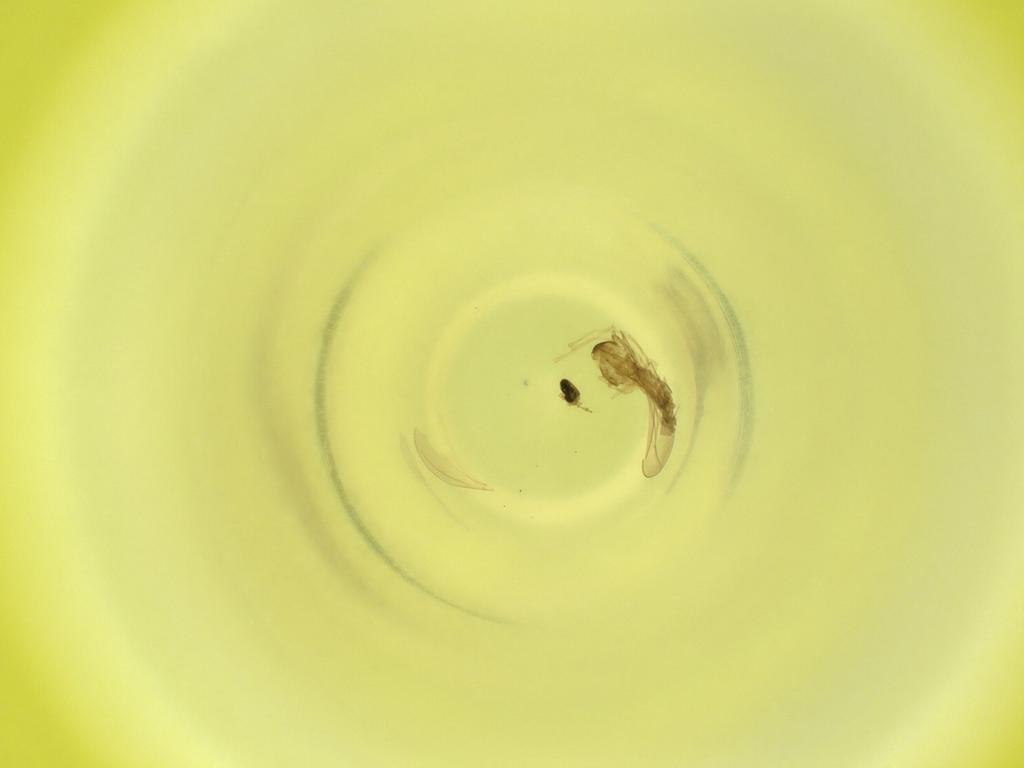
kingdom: Animalia
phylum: Arthropoda
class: Insecta
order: Diptera
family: Cecidomyiidae
